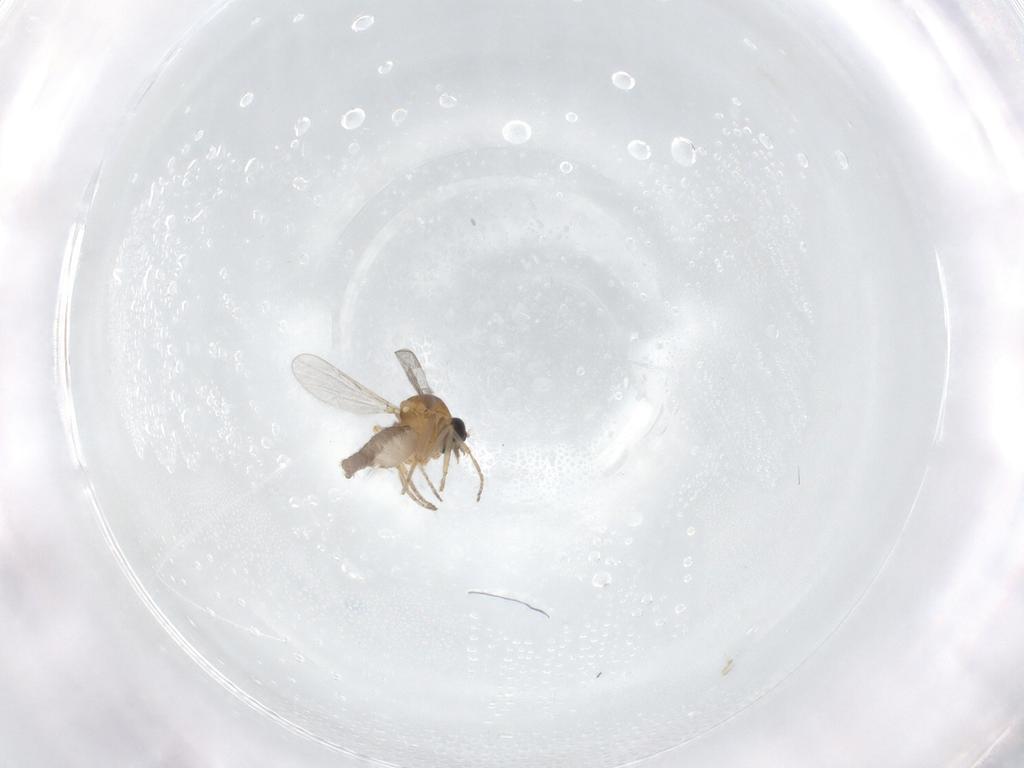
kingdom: Animalia
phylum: Arthropoda
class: Insecta
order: Diptera
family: Ceratopogonidae
